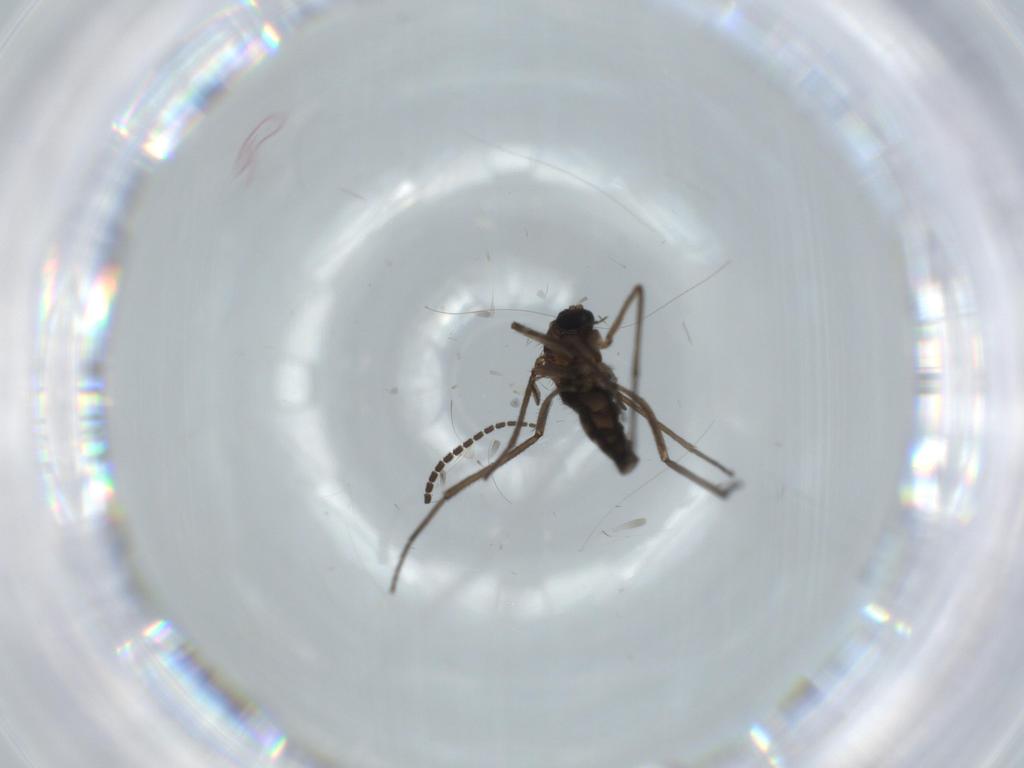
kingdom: Animalia
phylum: Arthropoda
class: Insecta
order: Diptera
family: Sciaridae
